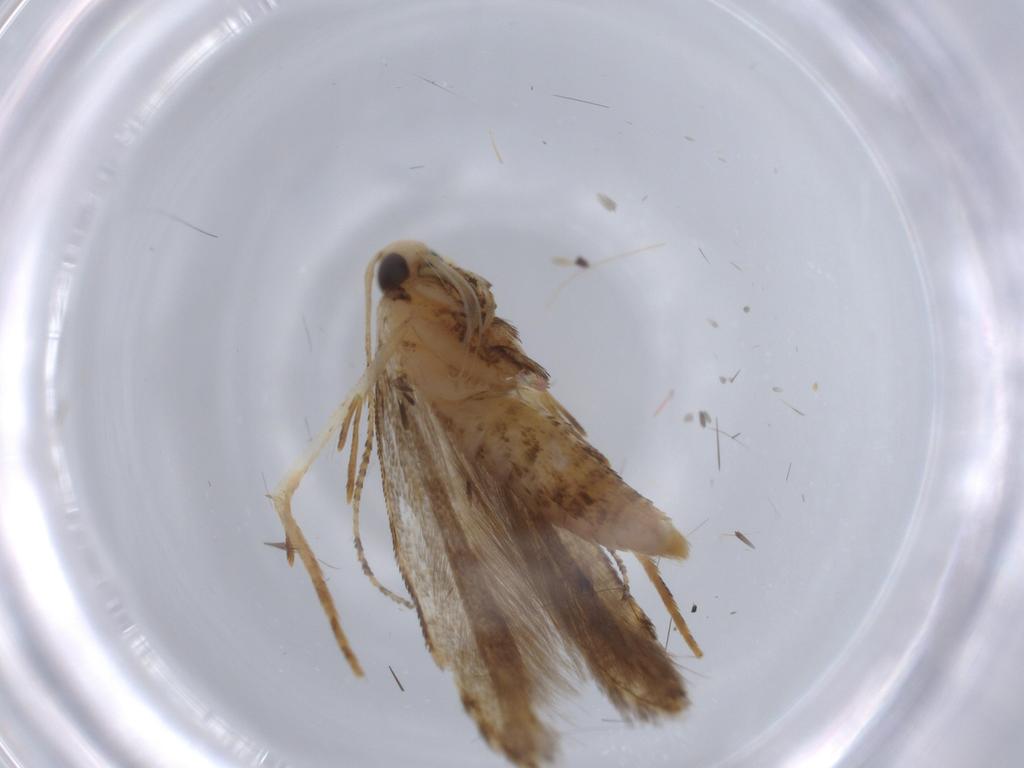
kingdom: Animalia
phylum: Arthropoda
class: Insecta
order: Lepidoptera
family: Gelechiidae
